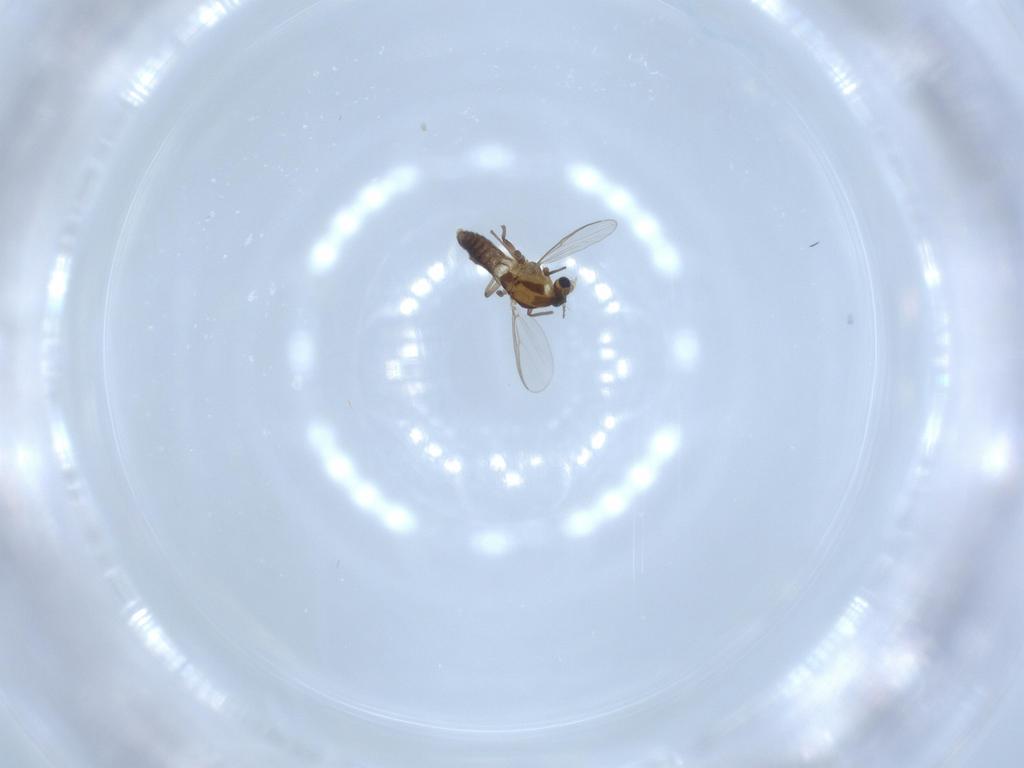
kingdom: Animalia
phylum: Arthropoda
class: Insecta
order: Diptera
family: Chironomidae
